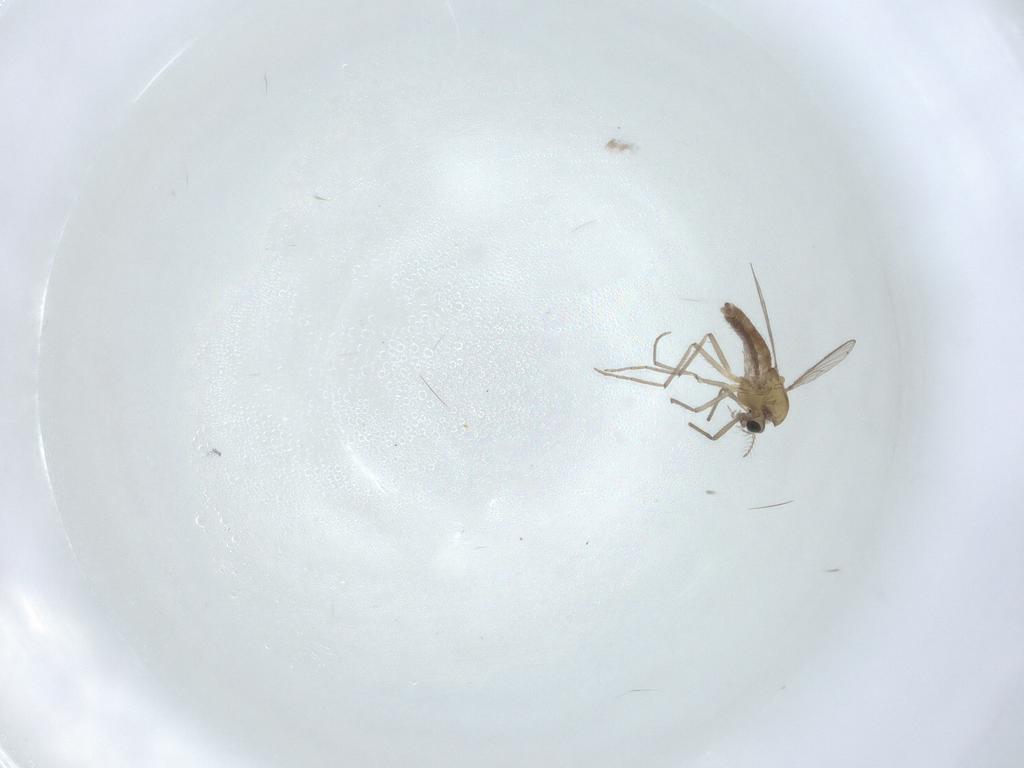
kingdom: Animalia
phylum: Arthropoda
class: Insecta
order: Diptera
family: Chironomidae
